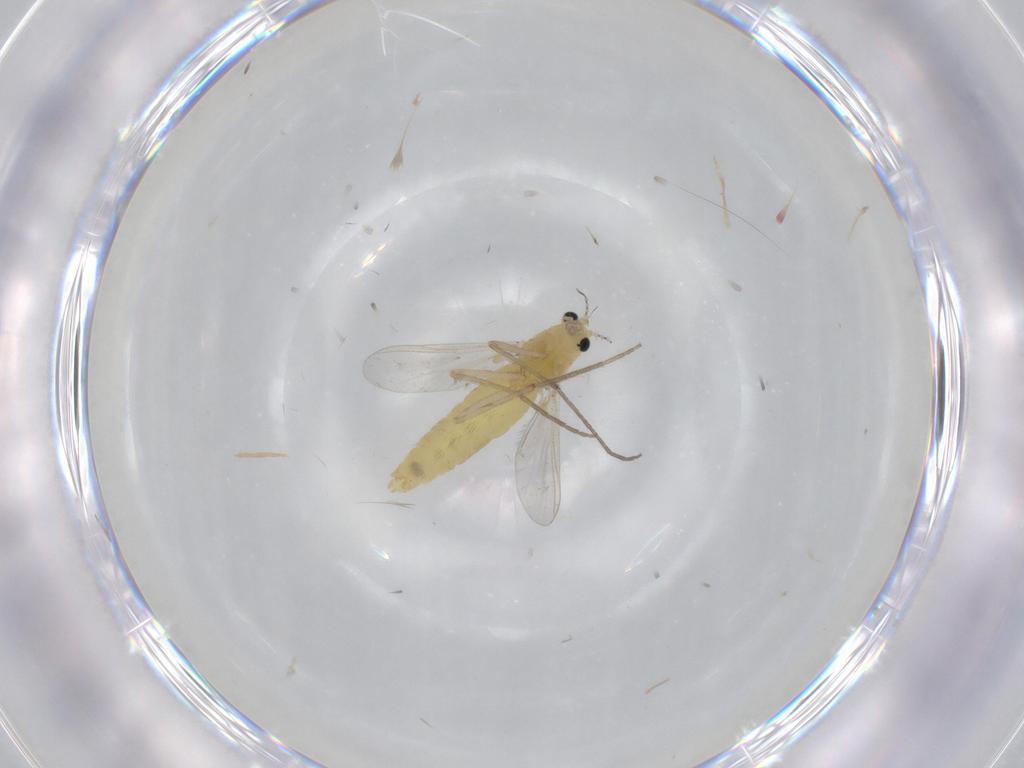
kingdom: Animalia
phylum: Arthropoda
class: Insecta
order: Diptera
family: Chironomidae
